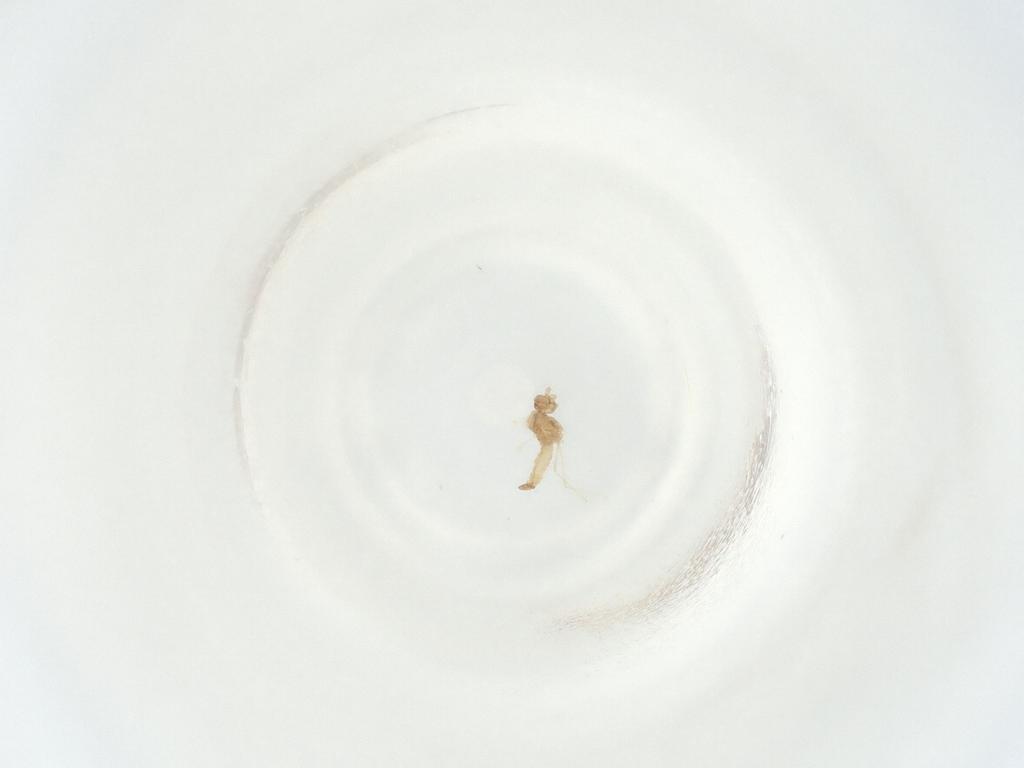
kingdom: Animalia
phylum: Arthropoda
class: Insecta
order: Diptera
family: Cecidomyiidae
